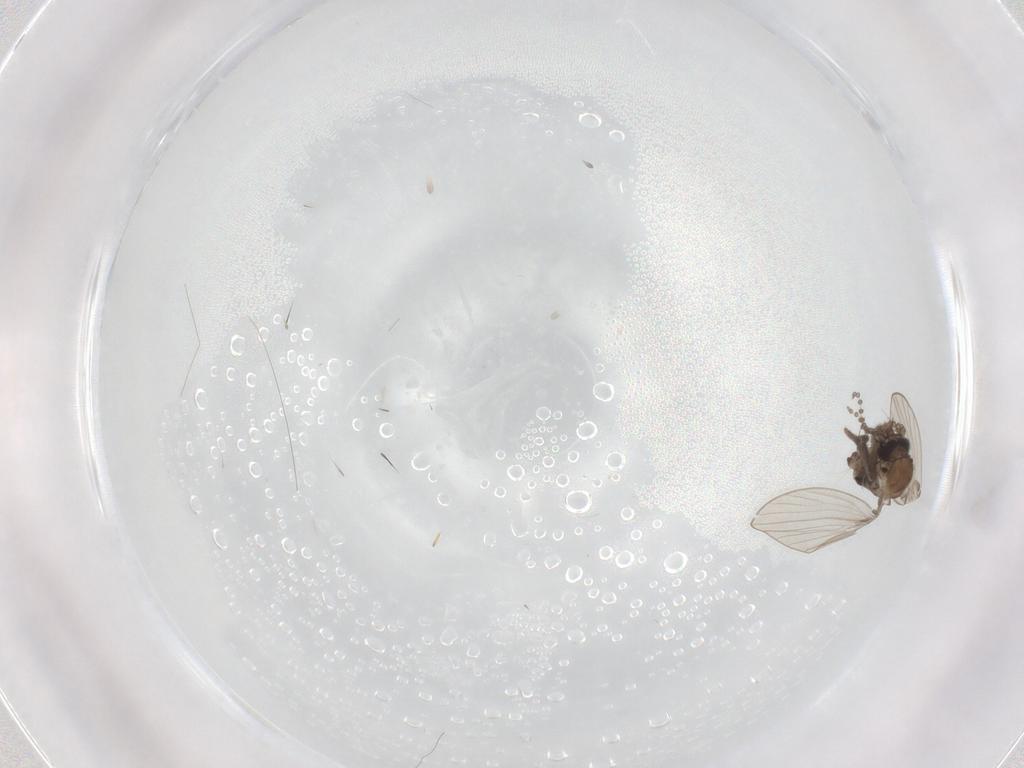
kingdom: Animalia
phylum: Arthropoda
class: Insecta
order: Diptera
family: Psychodidae
